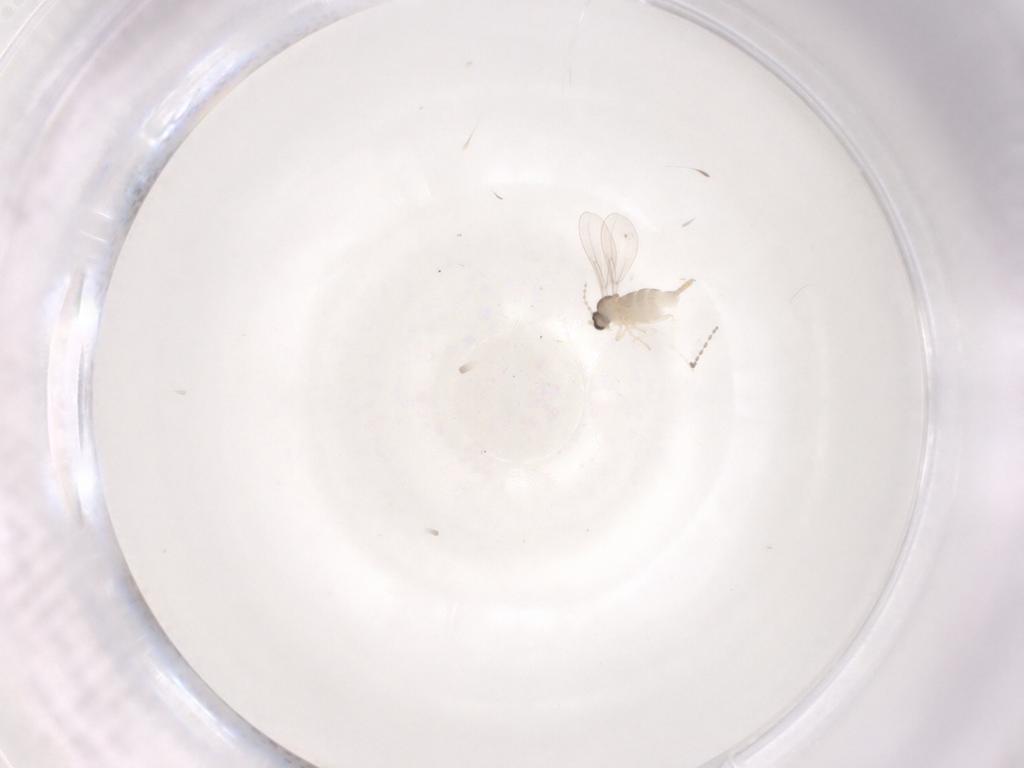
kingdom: Animalia
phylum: Arthropoda
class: Insecta
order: Diptera
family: Cecidomyiidae
